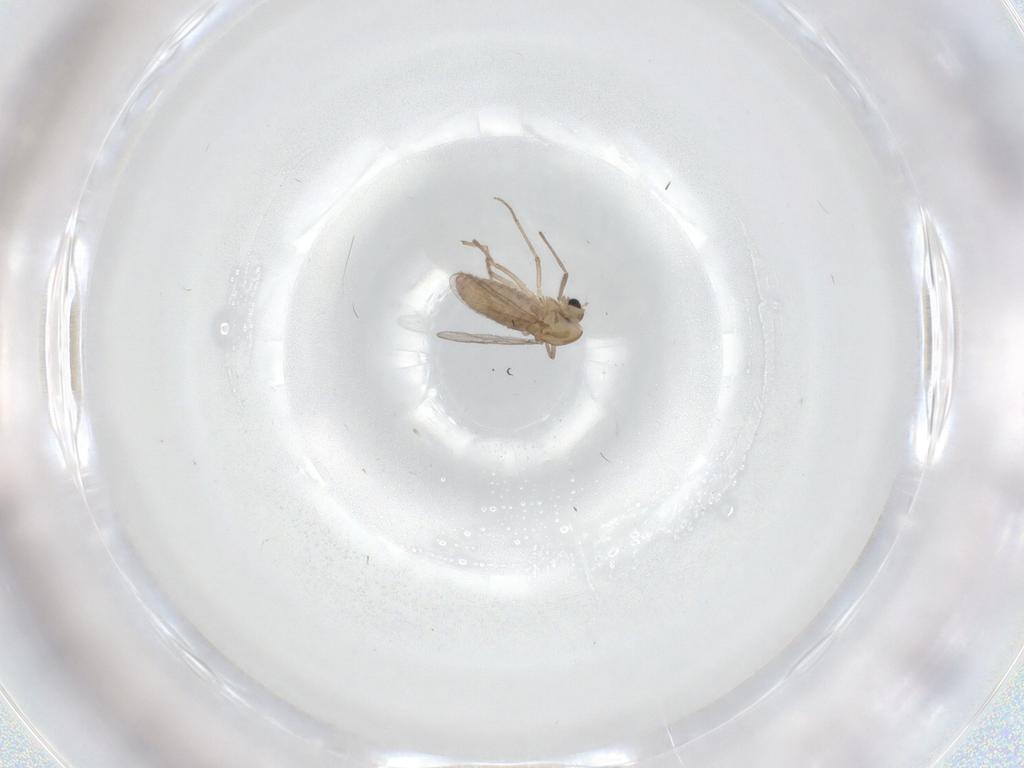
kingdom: Animalia
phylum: Arthropoda
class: Insecta
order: Diptera
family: Chironomidae
